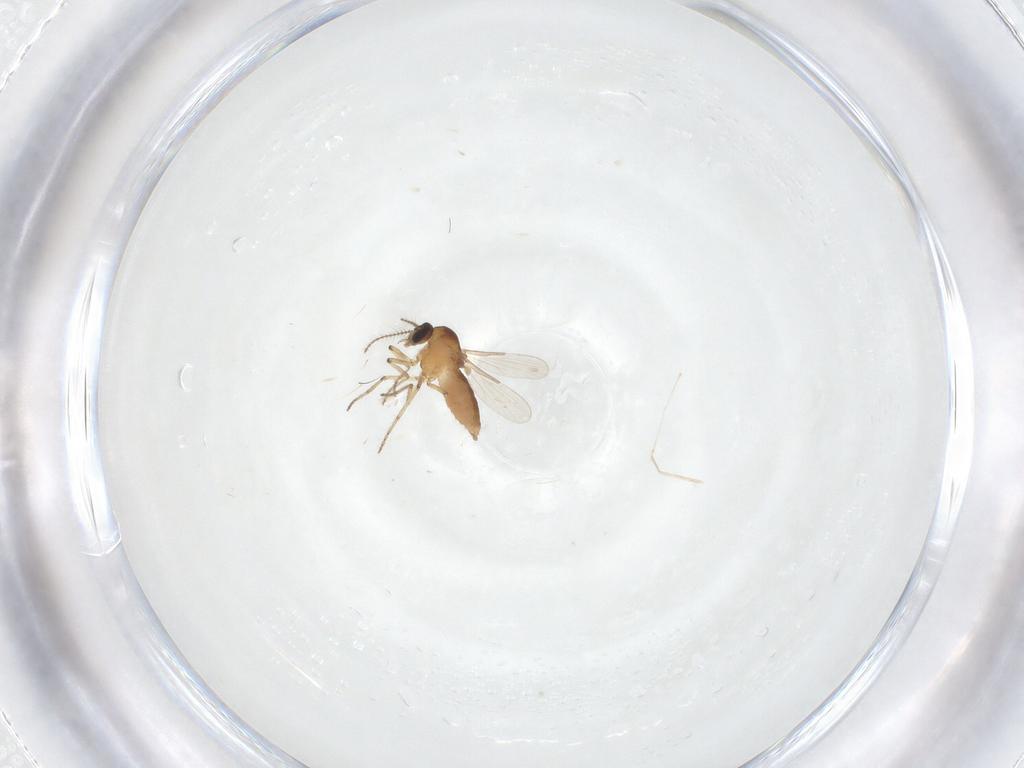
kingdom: Animalia
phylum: Arthropoda
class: Insecta
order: Diptera
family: Cecidomyiidae
